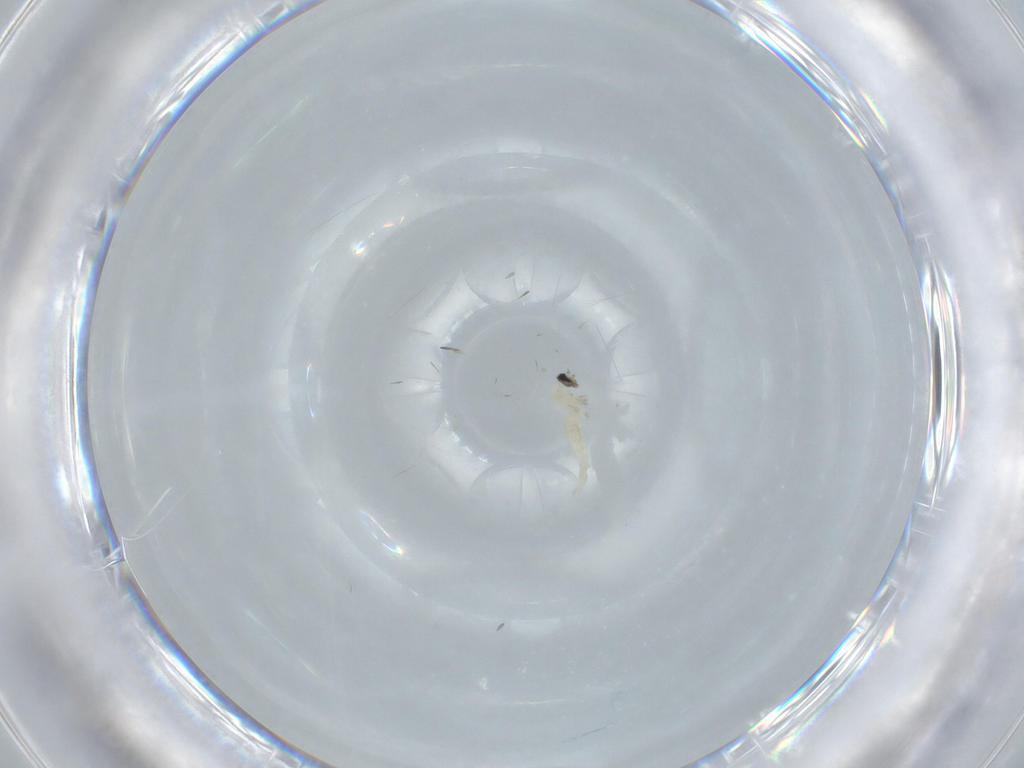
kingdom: Animalia
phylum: Arthropoda
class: Insecta
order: Diptera
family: Cecidomyiidae
